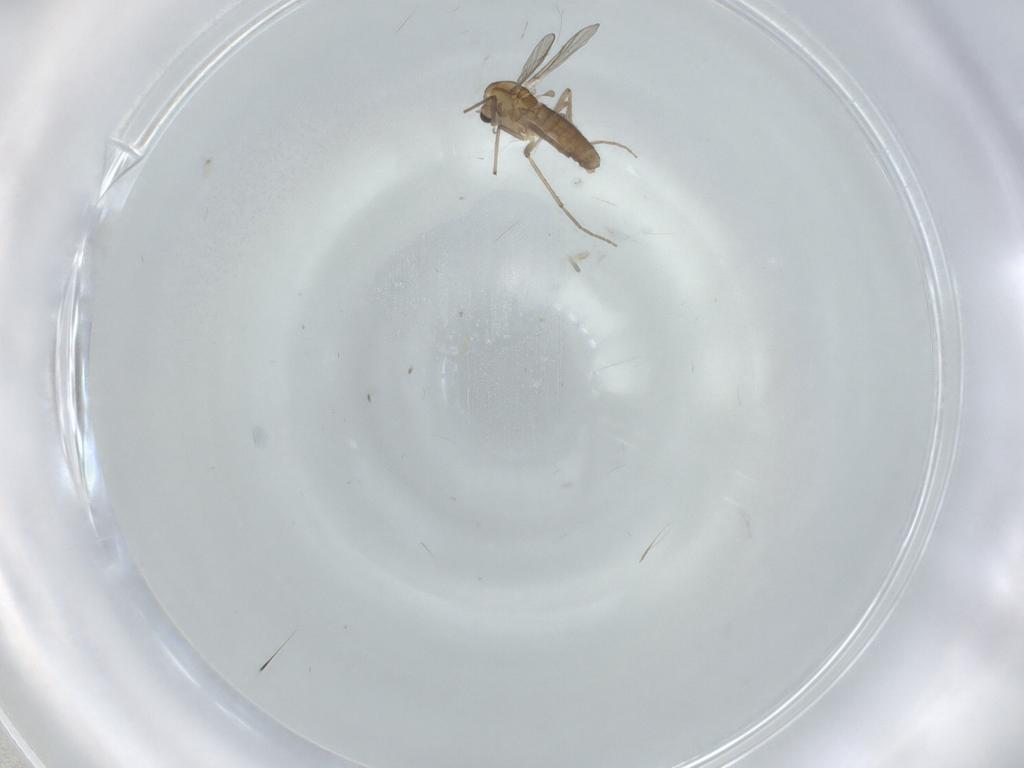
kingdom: Animalia
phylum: Arthropoda
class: Insecta
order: Diptera
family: Chironomidae
